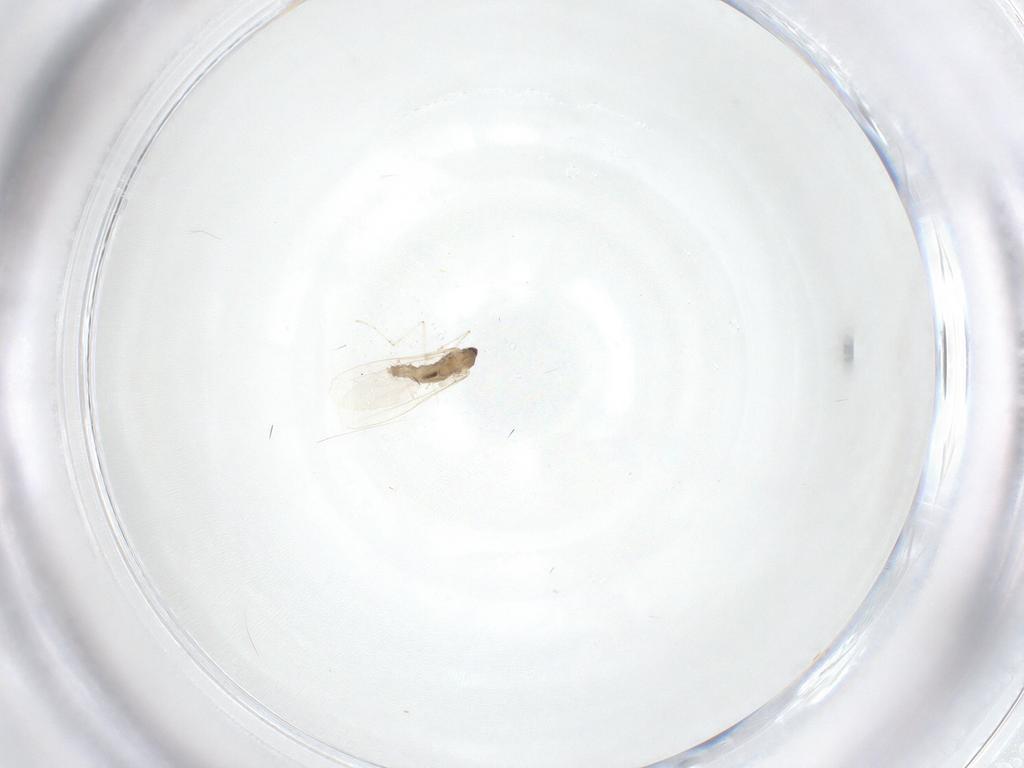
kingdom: Animalia
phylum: Arthropoda
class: Insecta
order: Diptera
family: Cecidomyiidae
